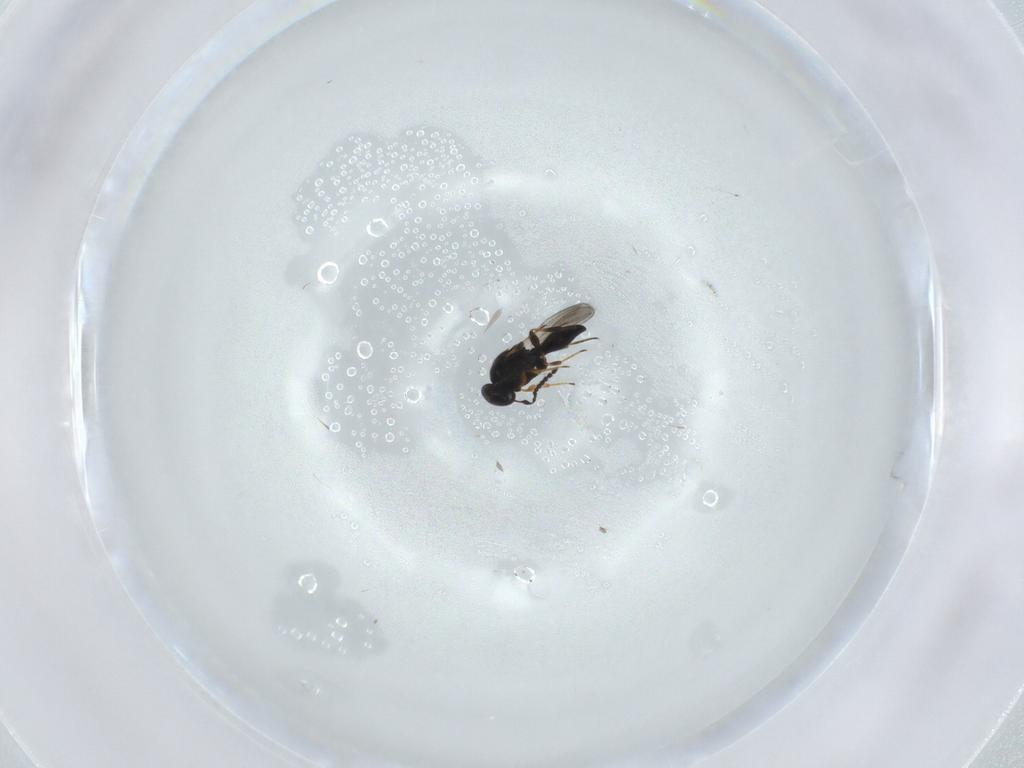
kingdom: Animalia
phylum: Arthropoda
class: Insecta
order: Hymenoptera
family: Platygastridae
